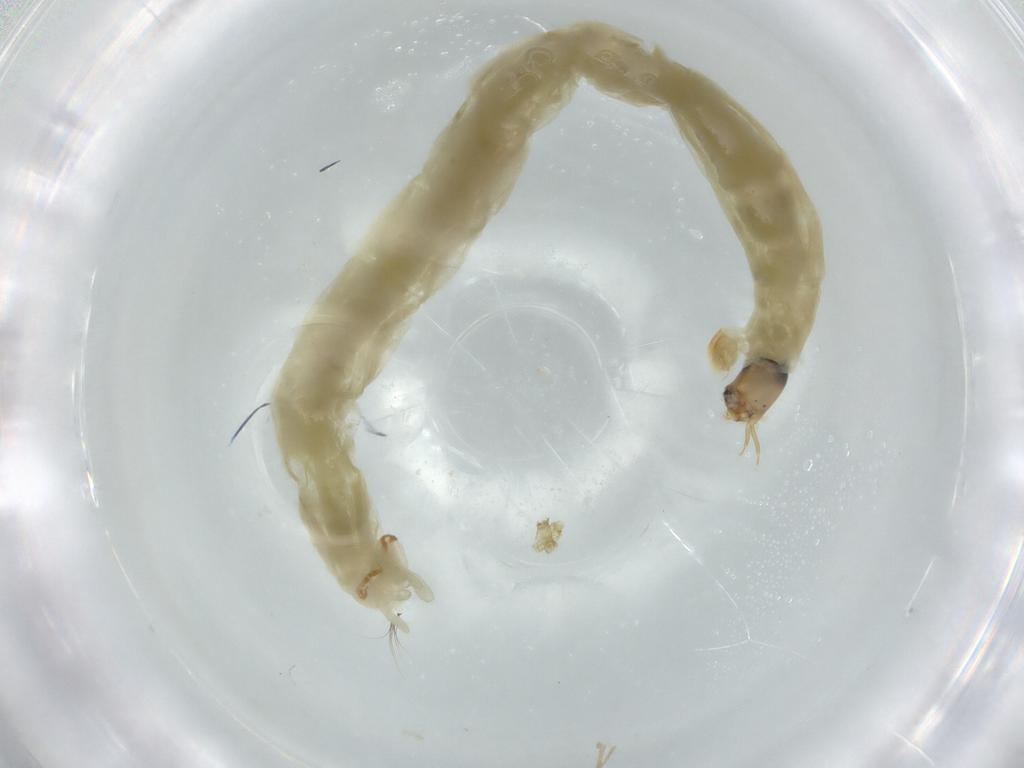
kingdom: Animalia
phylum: Arthropoda
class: Insecta
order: Diptera
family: Chironomidae
